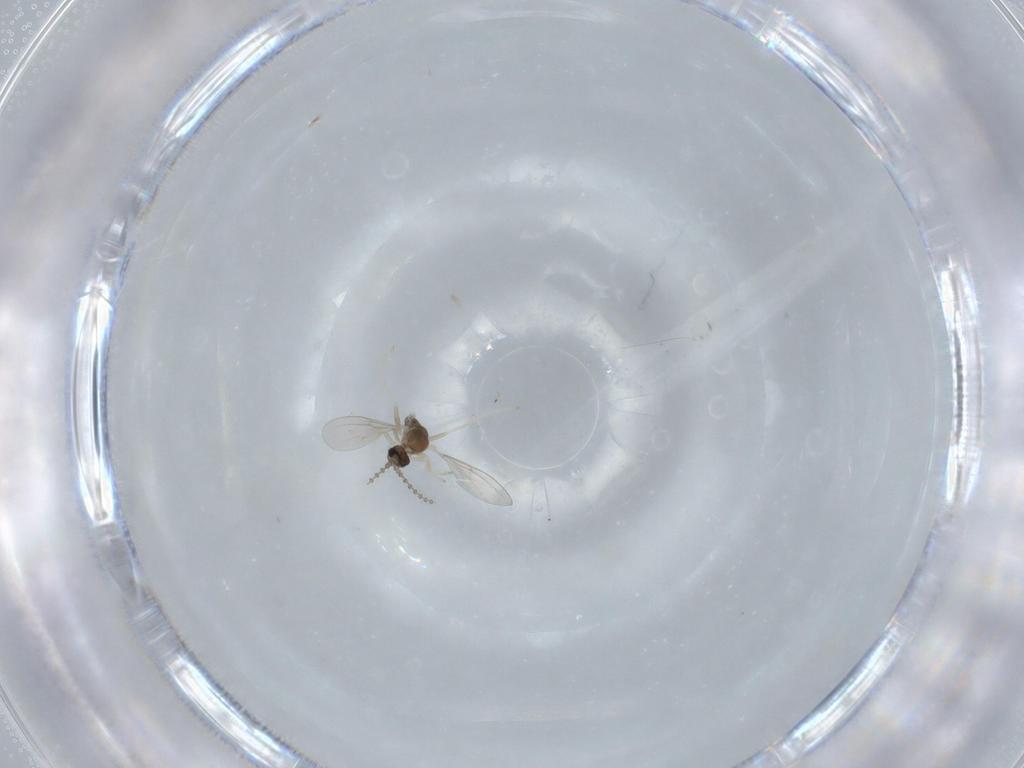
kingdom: Animalia
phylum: Arthropoda
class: Insecta
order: Diptera
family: Cecidomyiidae
